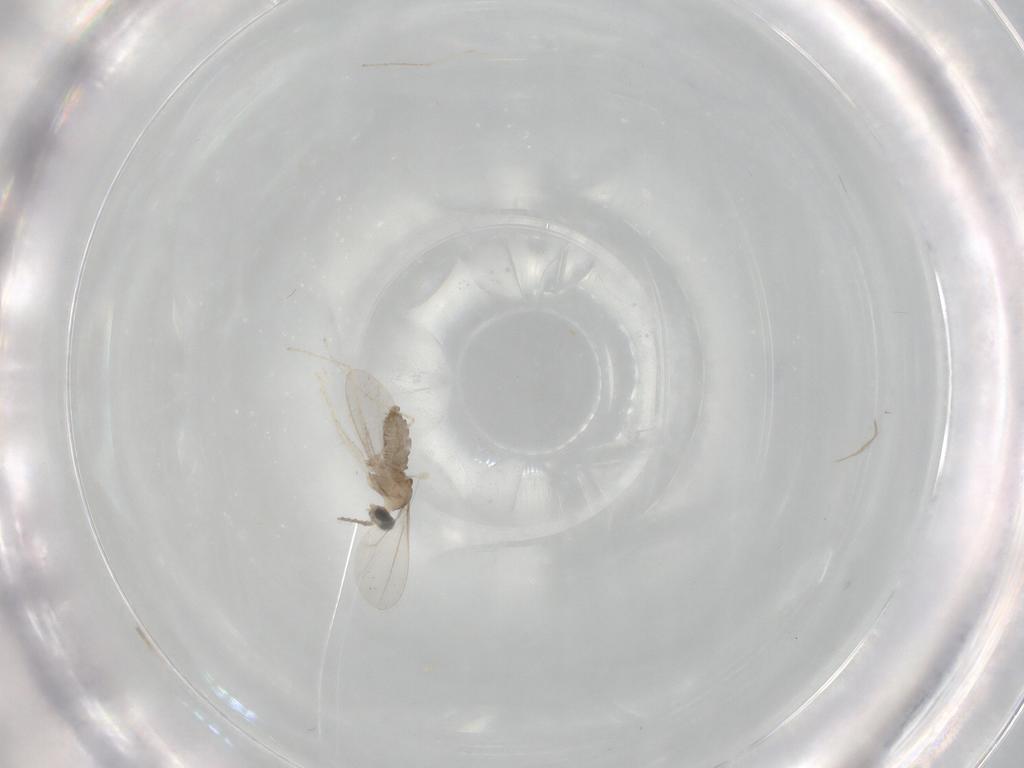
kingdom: Animalia
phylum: Arthropoda
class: Insecta
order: Diptera
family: Cecidomyiidae
